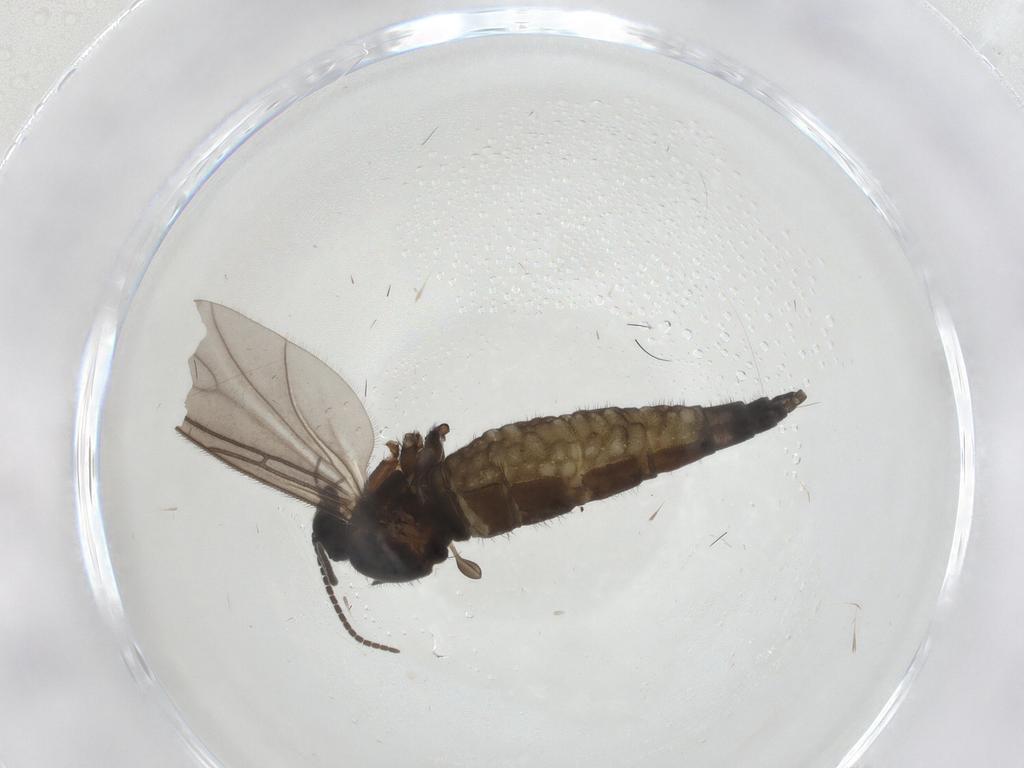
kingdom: Animalia
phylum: Arthropoda
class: Insecta
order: Diptera
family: Sciaridae
